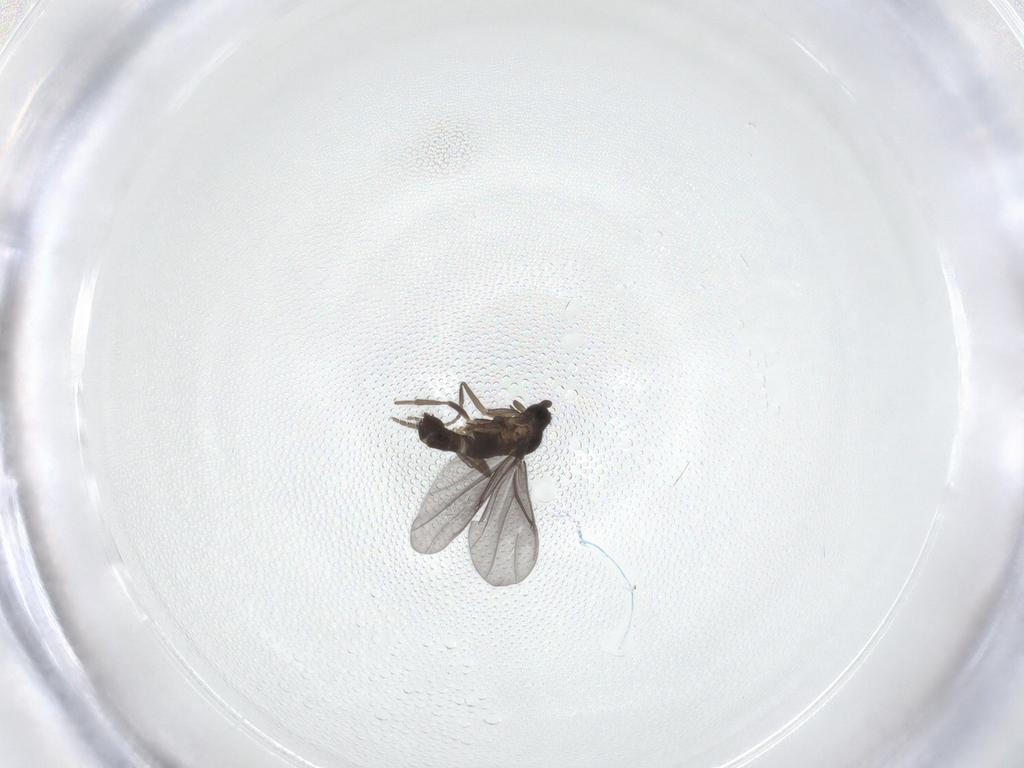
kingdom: Animalia
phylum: Arthropoda
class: Insecta
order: Diptera
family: Phoridae
